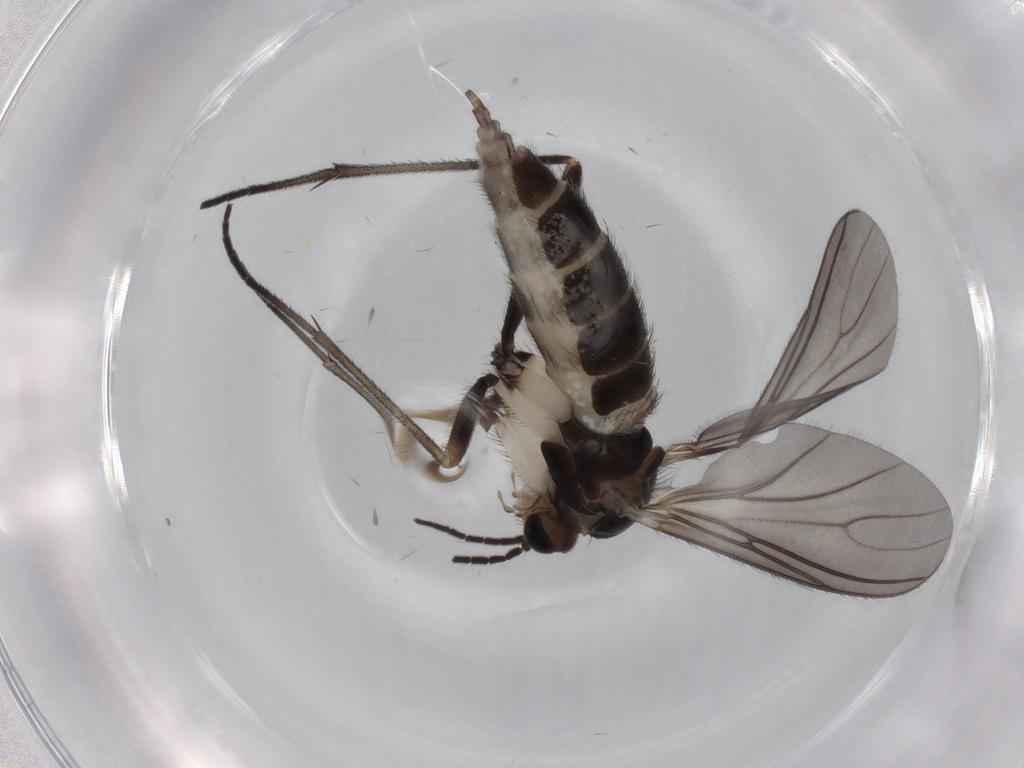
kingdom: Animalia
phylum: Arthropoda
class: Insecta
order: Diptera
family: Sciaridae
